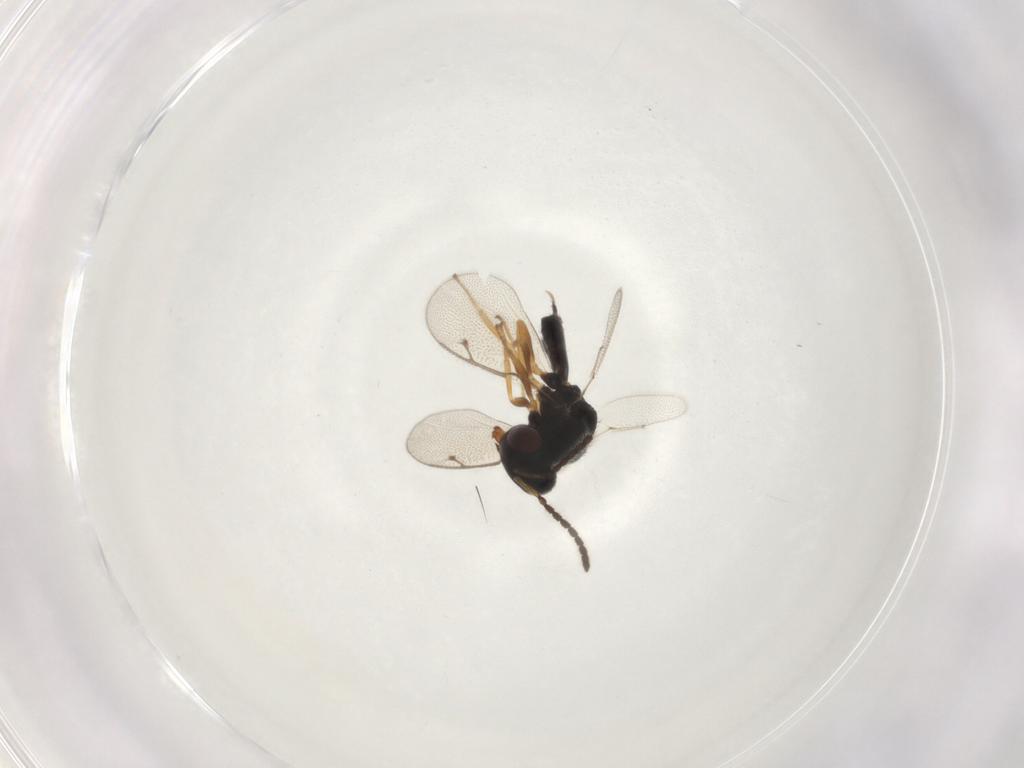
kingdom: Animalia
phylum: Arthropoda
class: Insecta
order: Hymenoptera
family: Pteromalidae
